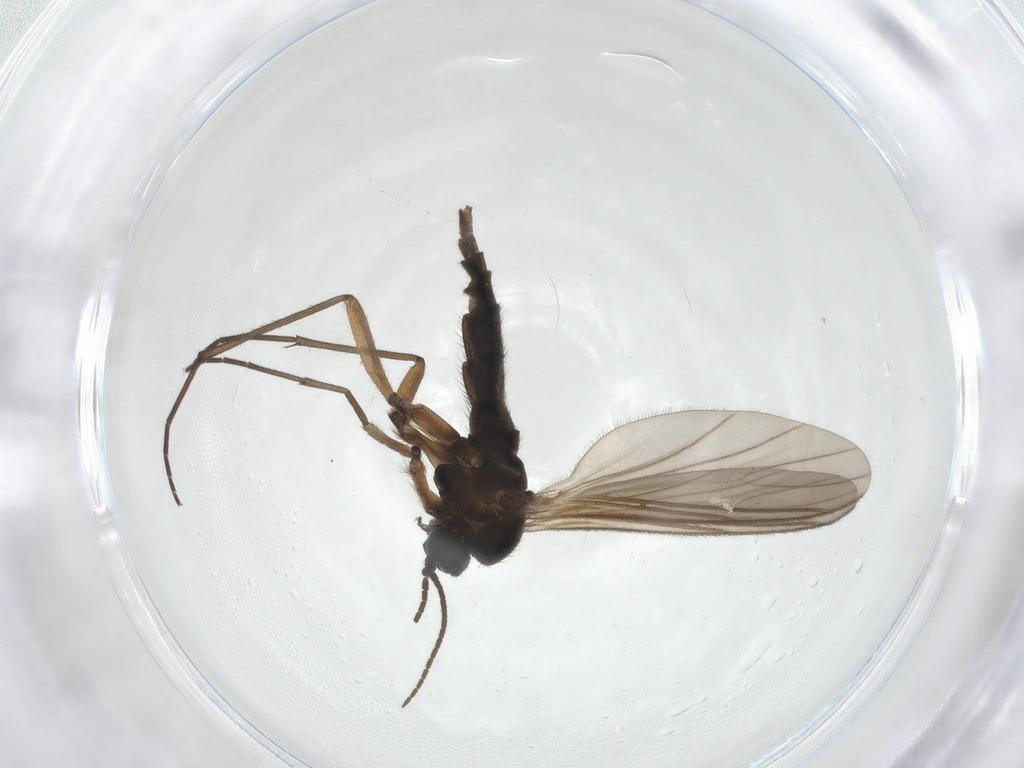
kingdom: Animalia
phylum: Arthropoda
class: Insecta
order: Diptera
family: Sciaridae
